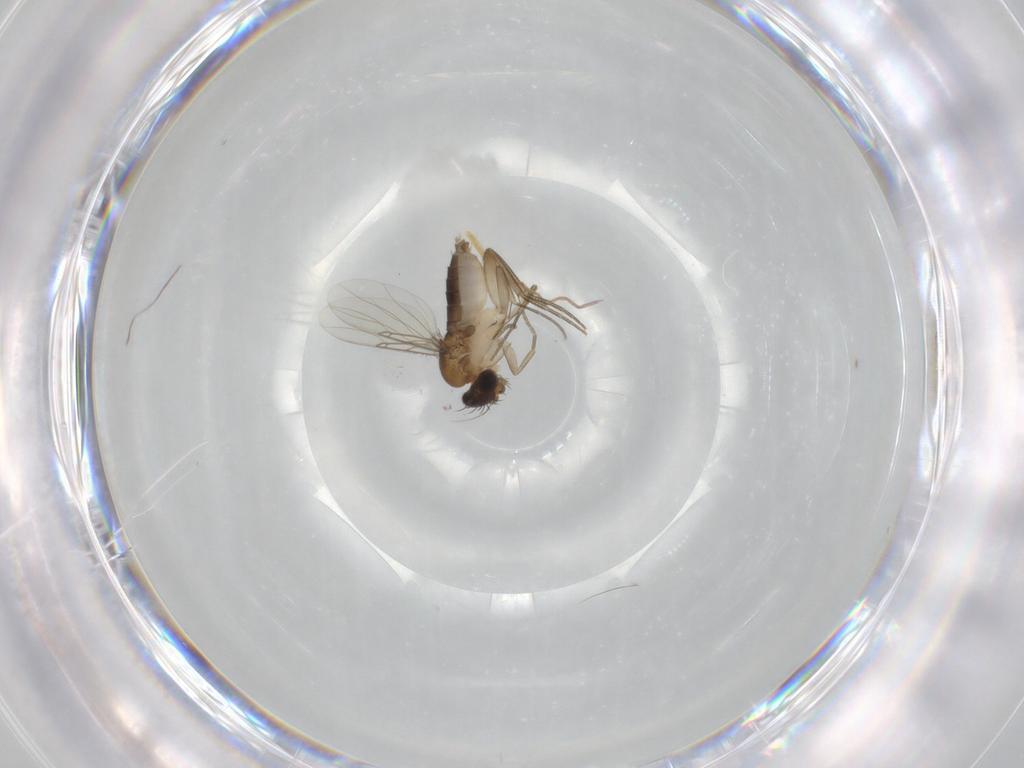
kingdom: Animalia
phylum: Arthropoda
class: Insecta
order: Diptera
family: Phoridae
